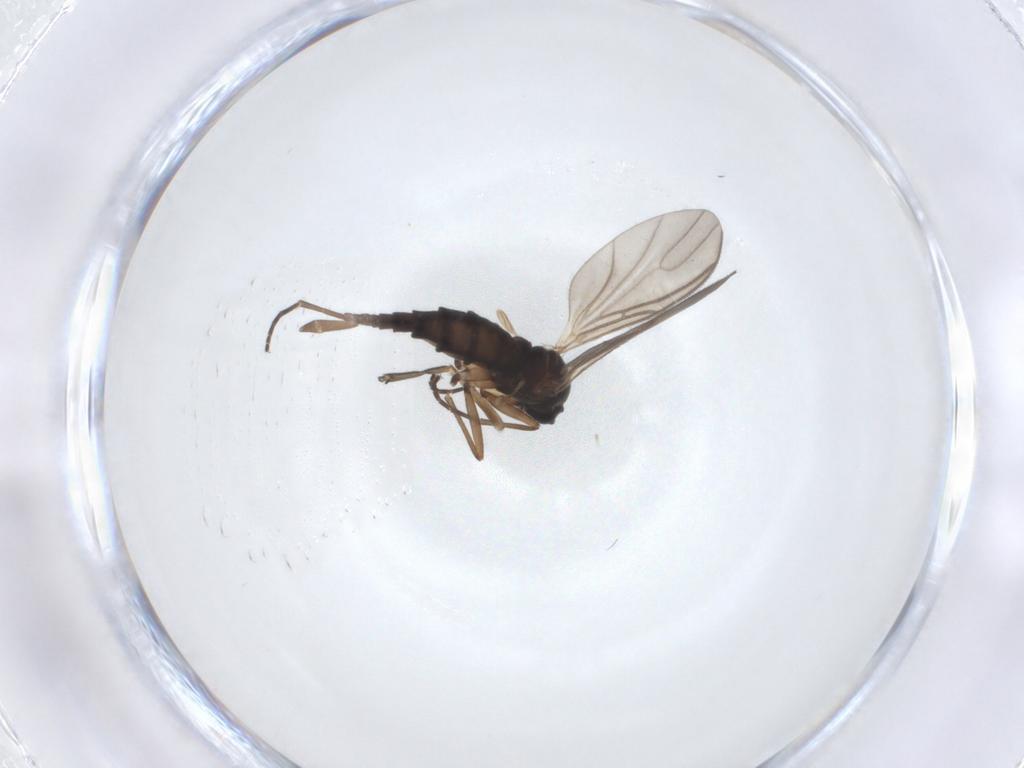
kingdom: Animalia
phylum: Arthropoda
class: Insecta
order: Diptera
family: Mycetophilidae
